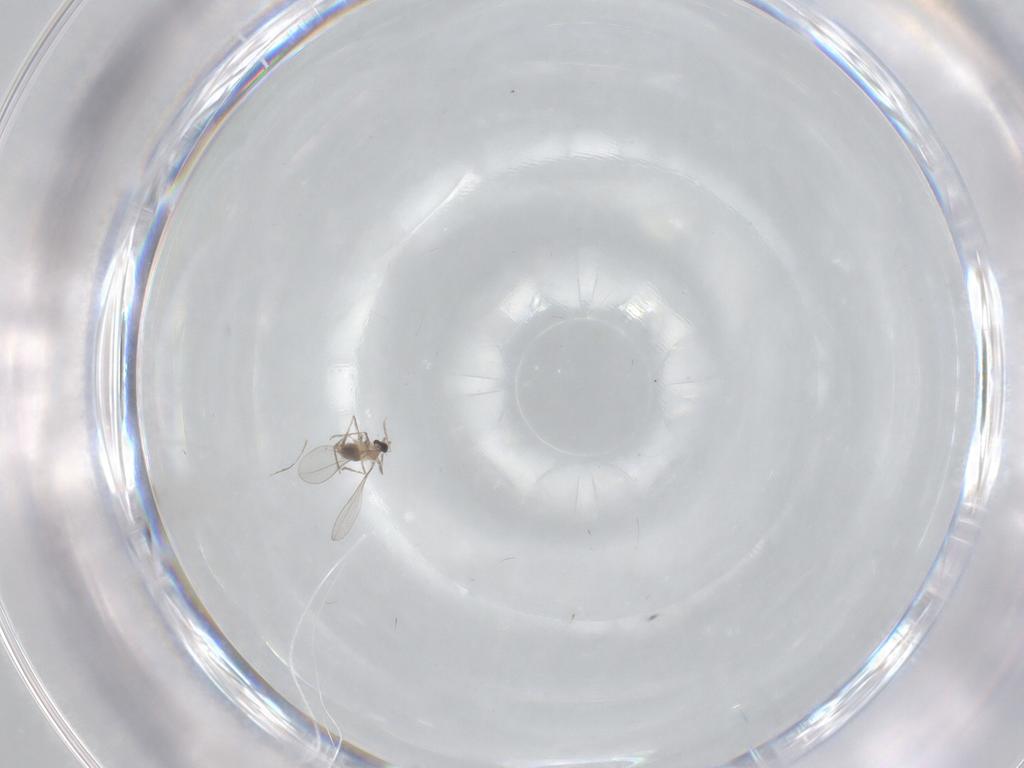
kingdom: Animalia
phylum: Arthropoda
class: Insecta
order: Diptera
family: Cecidomyiidae
